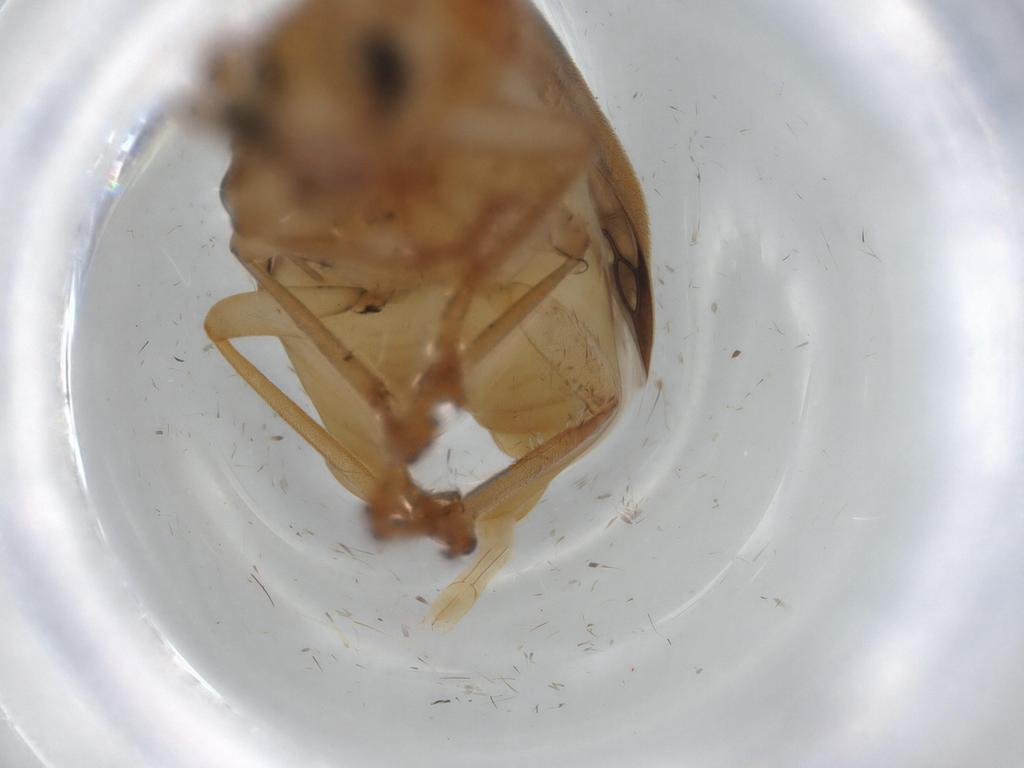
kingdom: Animalia
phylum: Arthropoda
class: Insecta
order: Coleoptera
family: Oedemeridae
